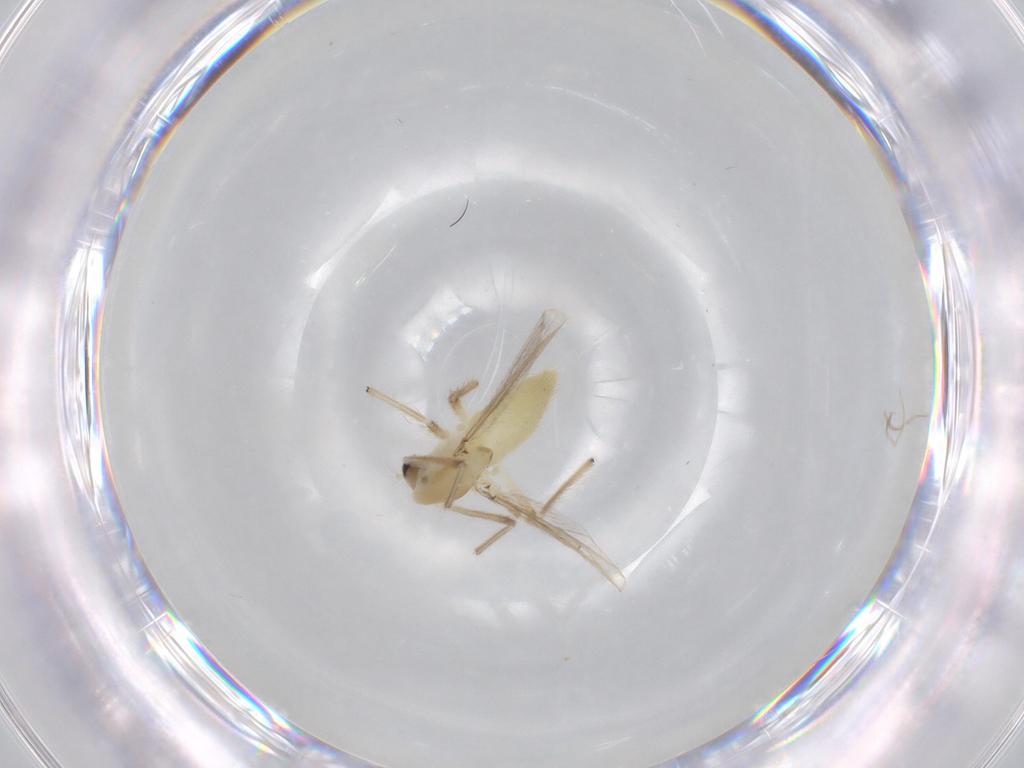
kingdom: Animalia
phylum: Arthropoda
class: Insecta
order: Diptera
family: Chironomidae
